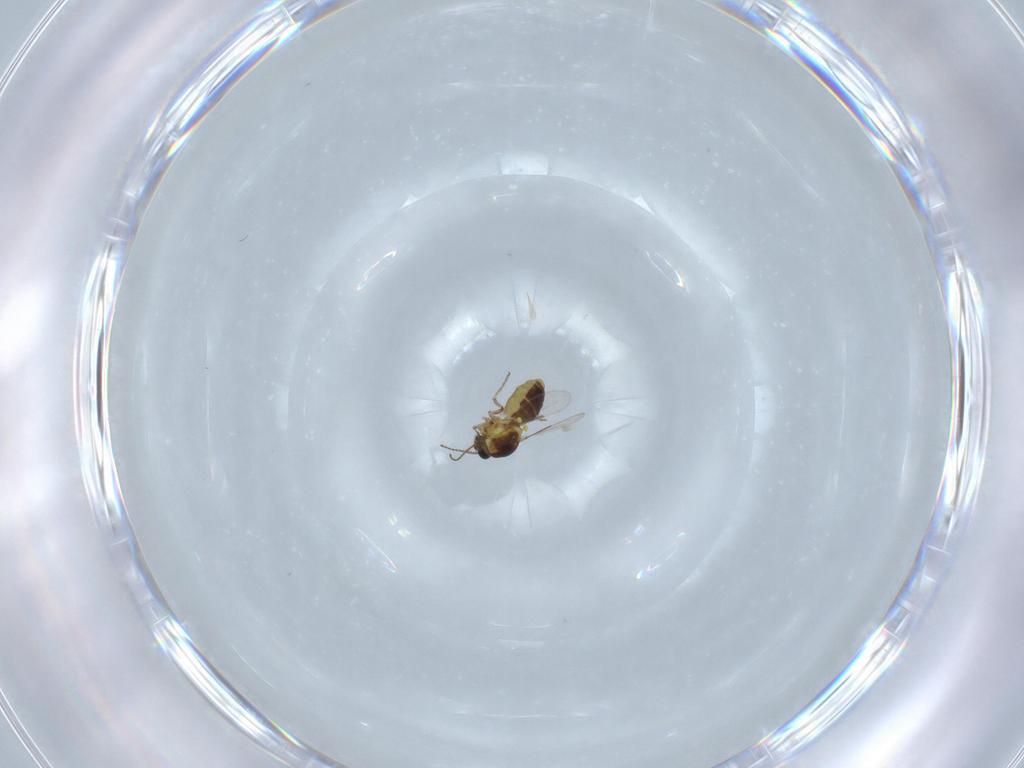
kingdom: Animalia
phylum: Arthropoda
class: Insecta
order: Diptera
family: Ceratopogonidae
